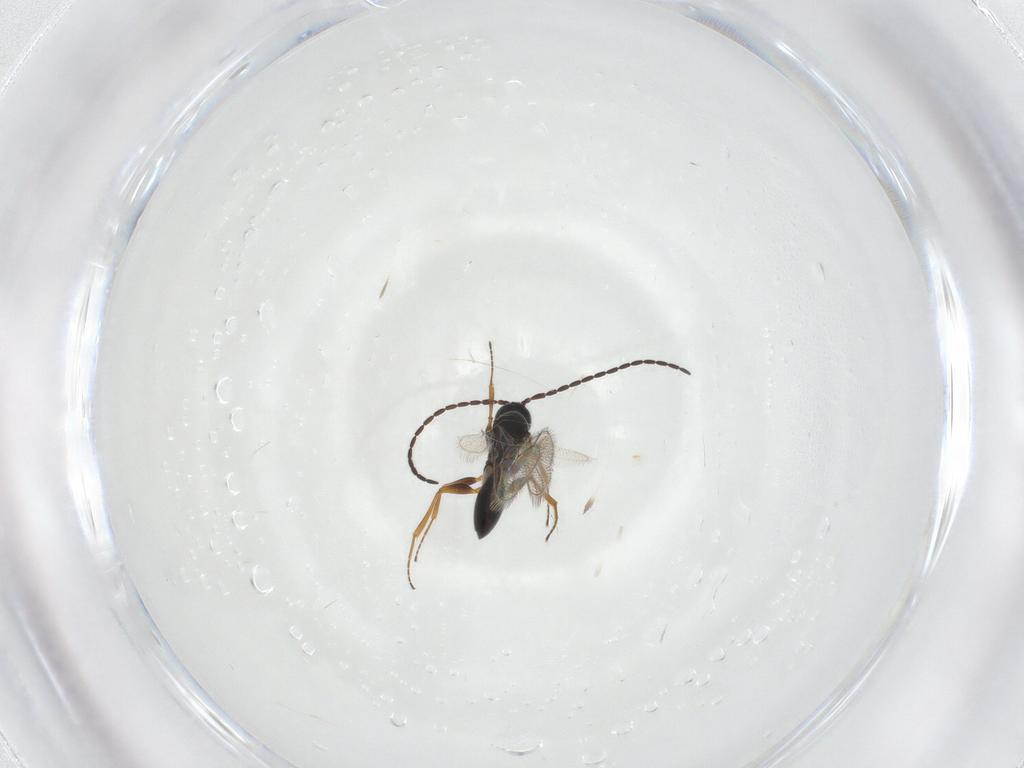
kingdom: Animalia
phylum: Arthropoda
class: Insecta
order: Hymenoptera
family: Figitidae
